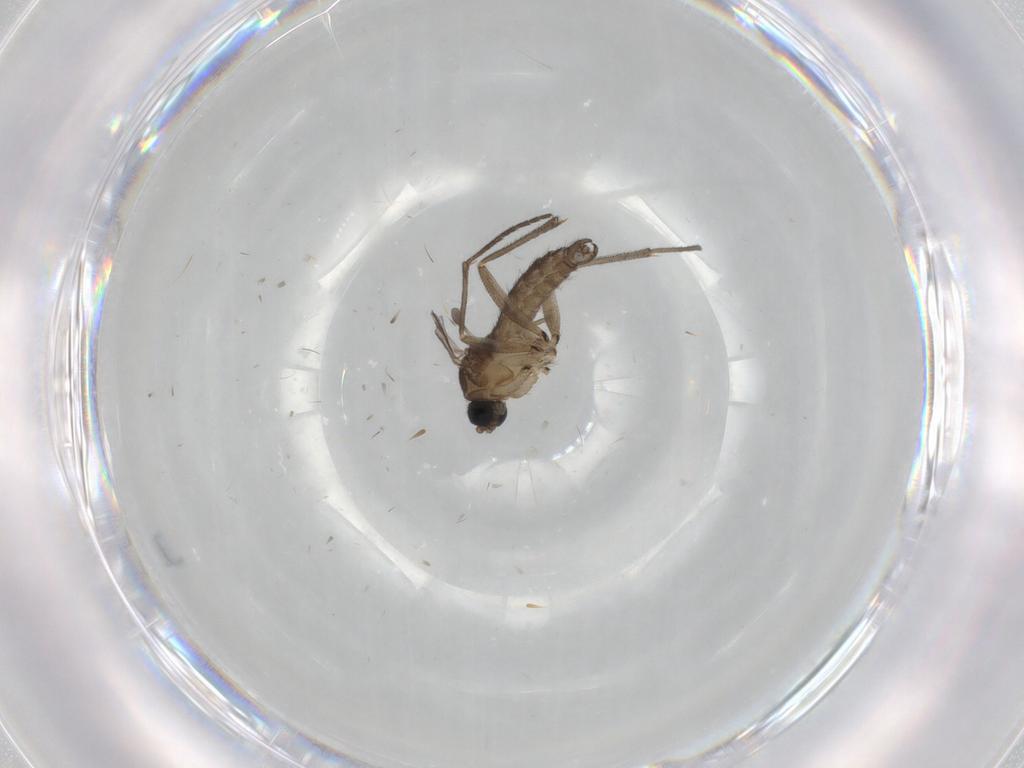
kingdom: Animalia
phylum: Arthropoda
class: Insecta
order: Diptera
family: Sciaridae
